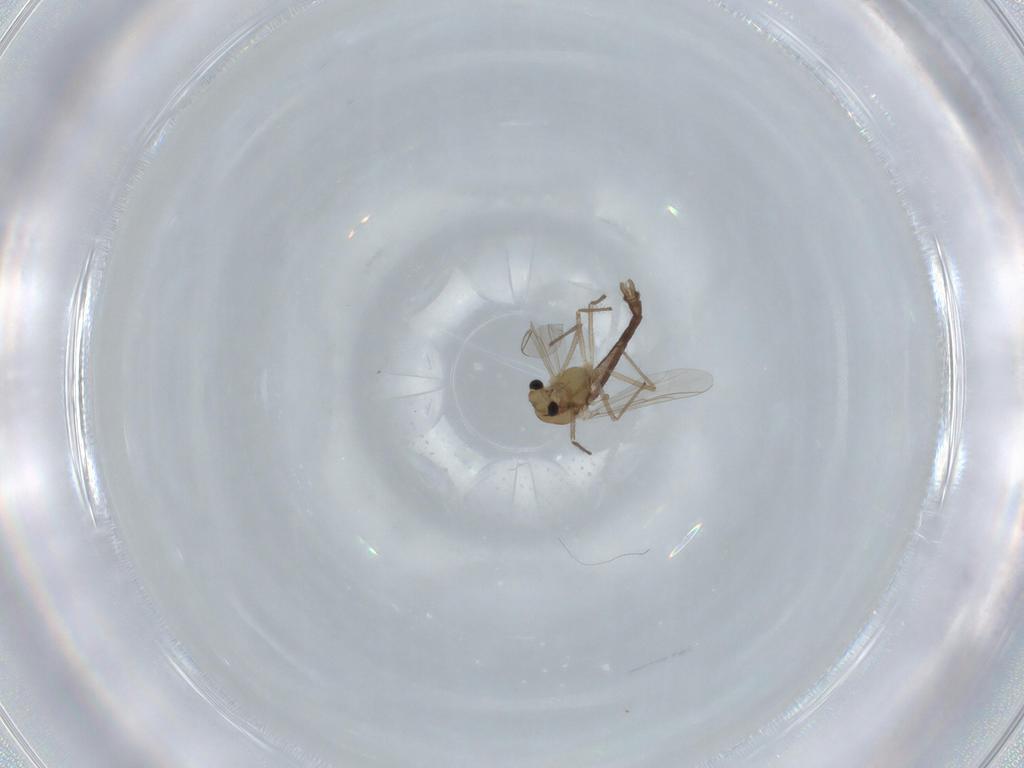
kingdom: Animalia
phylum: Arthropoda
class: Insecta
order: Diptera
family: Chironomidae
